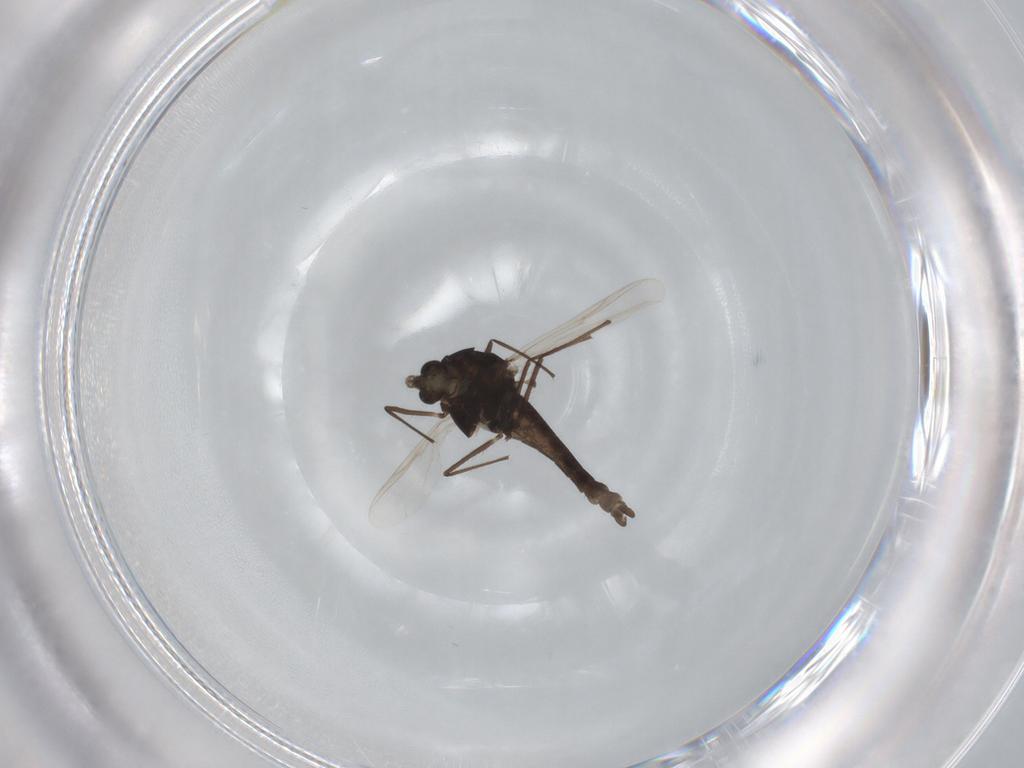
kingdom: Animalia
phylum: Arthropoda
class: Insecta
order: Diptera
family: Chironomidae
